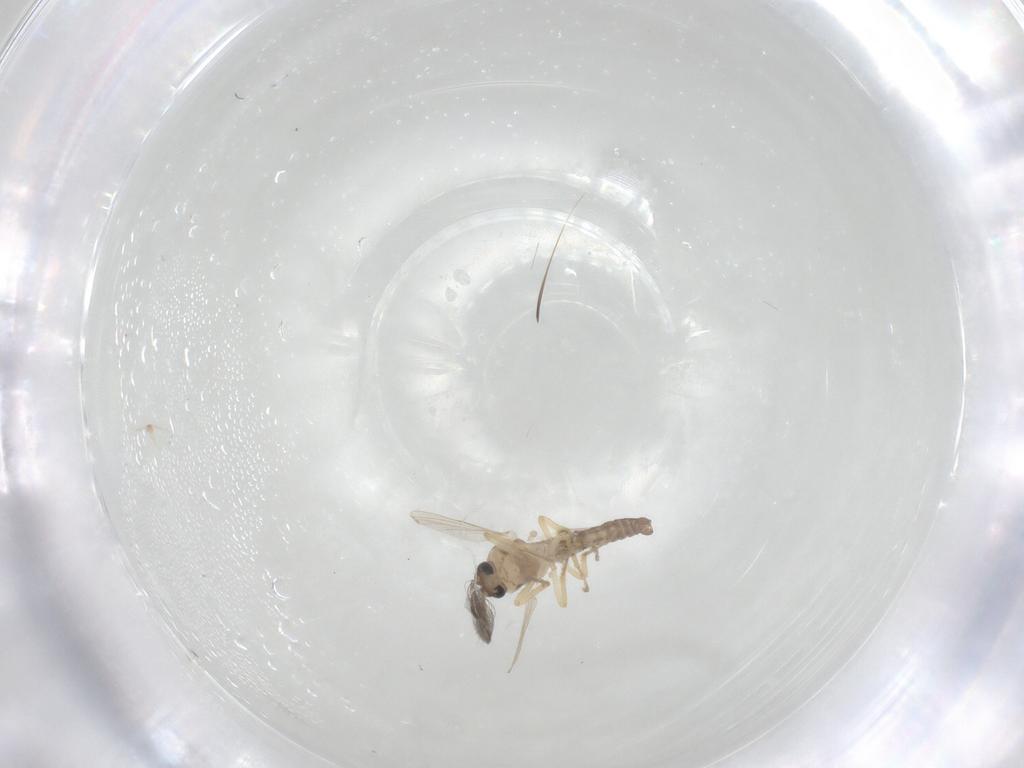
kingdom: Animalia
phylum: Arthropoda
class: Insecta
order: Diptera
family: Ceratopogonidae
